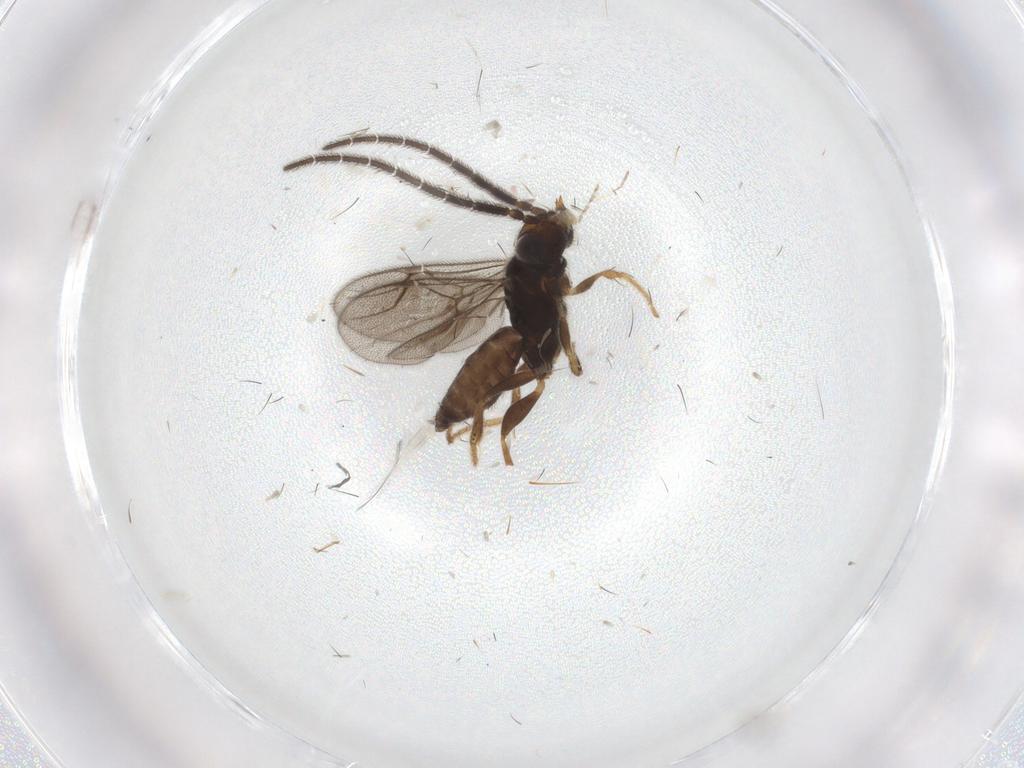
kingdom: Animalia
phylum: Arthropoda
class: Insecta
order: Hymenoptera
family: Dryinidae
